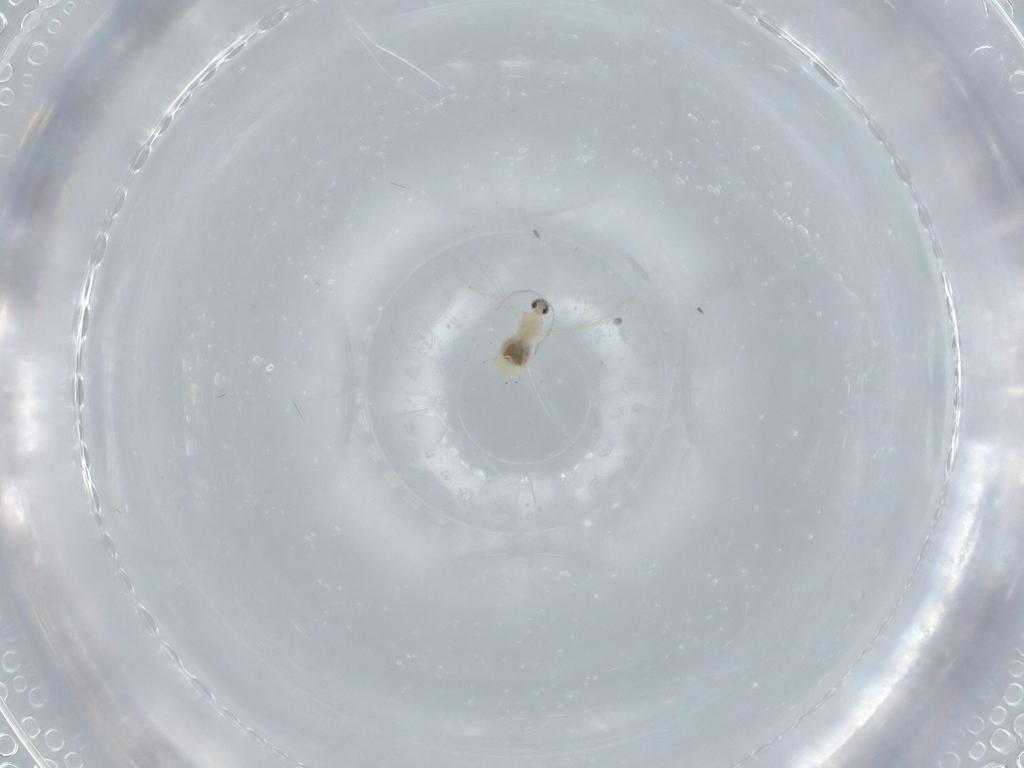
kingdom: Animalia
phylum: Arthropoda
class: Insecta
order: Diptera
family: Cecidomyiidae
